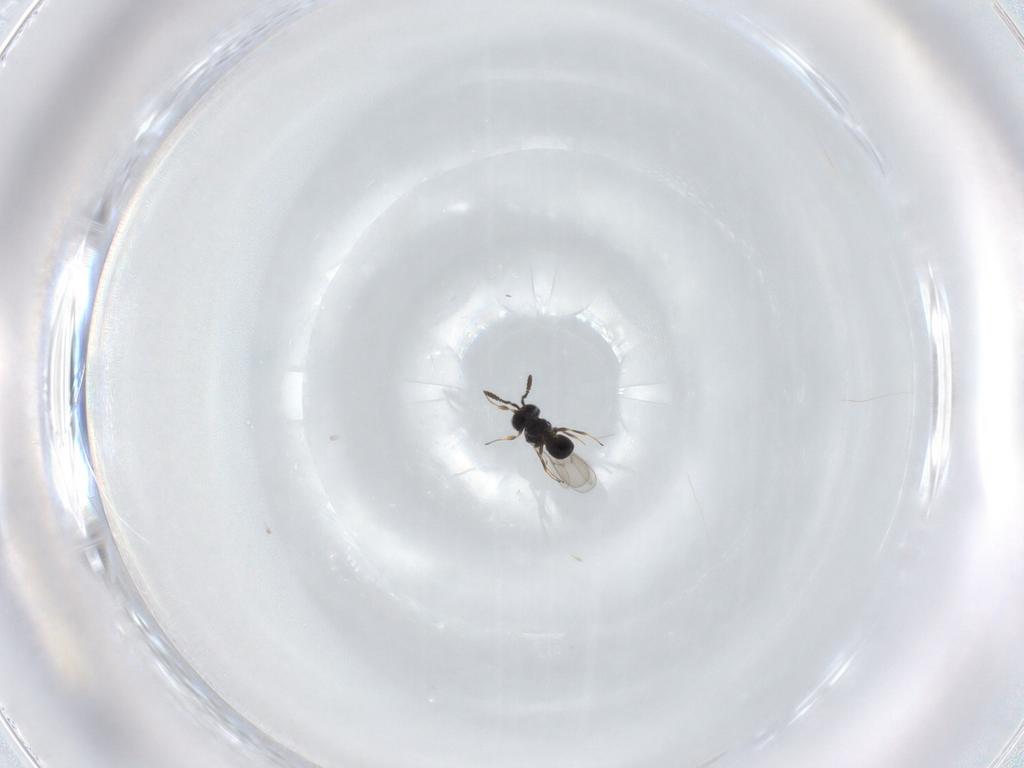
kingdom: Animalia
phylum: Arthropoda
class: Insecta
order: Hymenoptera
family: Scelionidae
